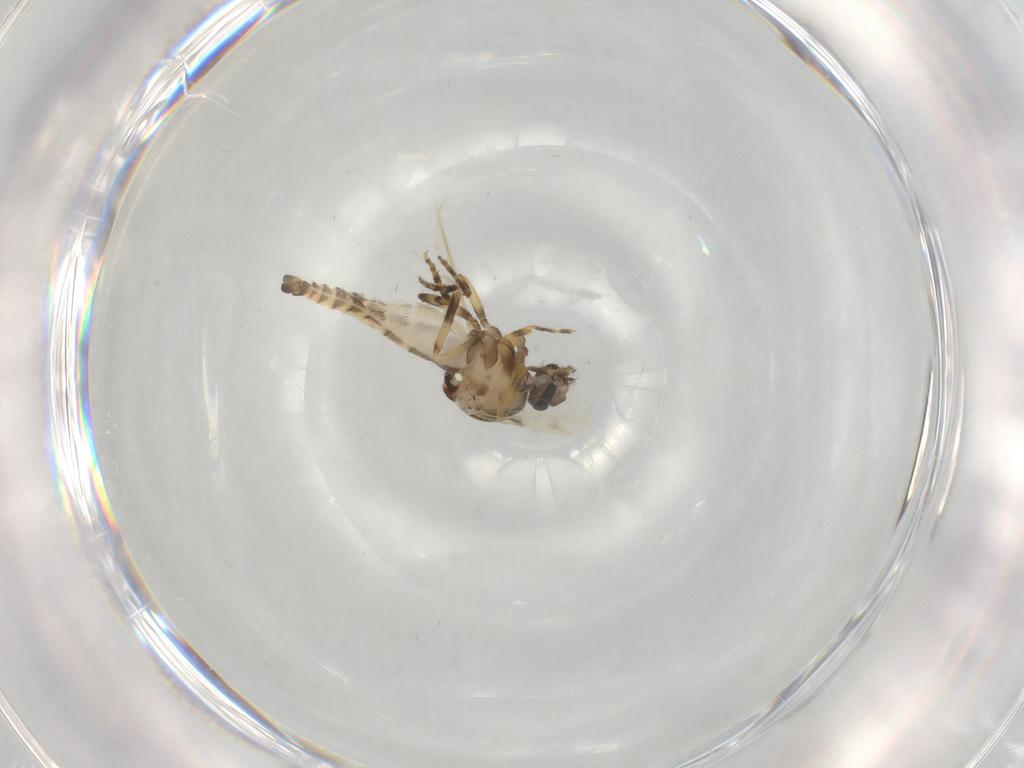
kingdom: Animalia
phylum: Arthropoda
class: Insecta
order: Diptera
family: Ceratopogonidae
